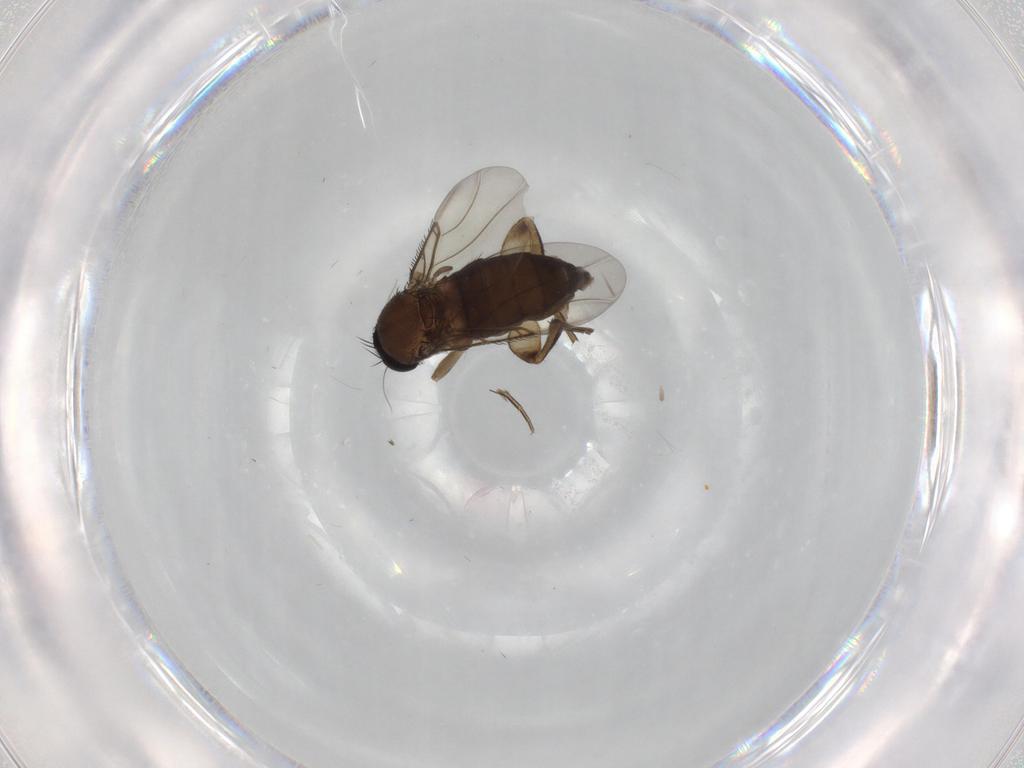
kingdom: Animalia
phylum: Arthropoda
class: Insecta
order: Diptera
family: Phoridae
